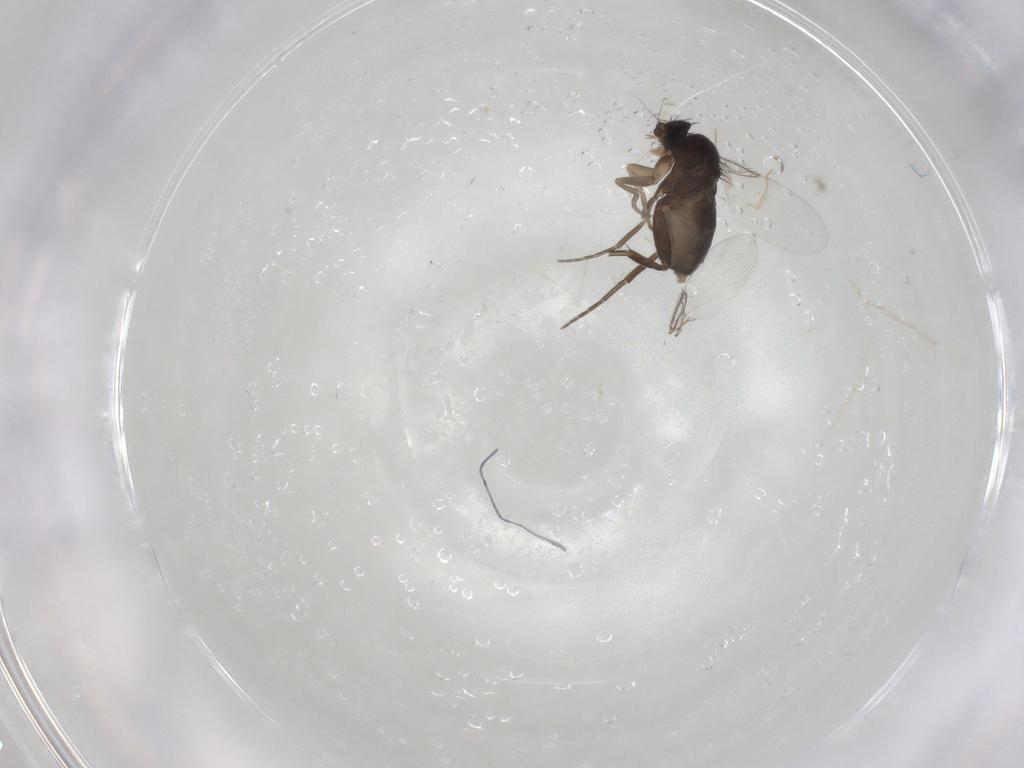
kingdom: Animalia
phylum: Arthropoda
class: Insecta
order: Diptera
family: Phoridae
